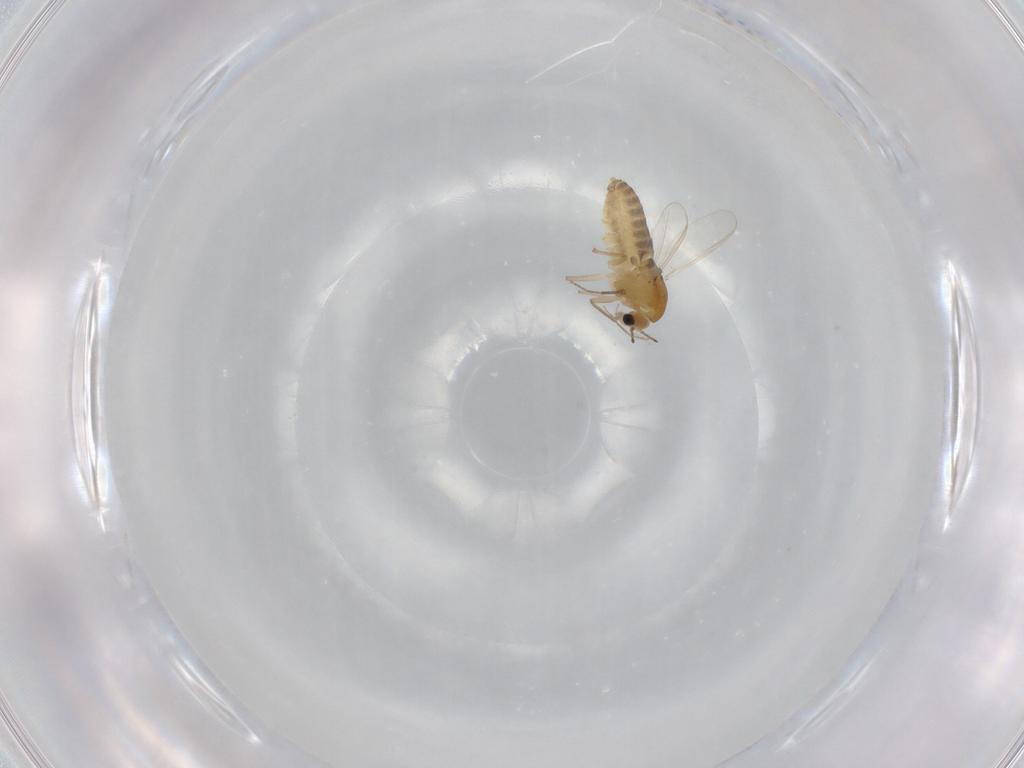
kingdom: Animalia
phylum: Arthropoda
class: Insecta
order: Diptera
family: Chironomidae
